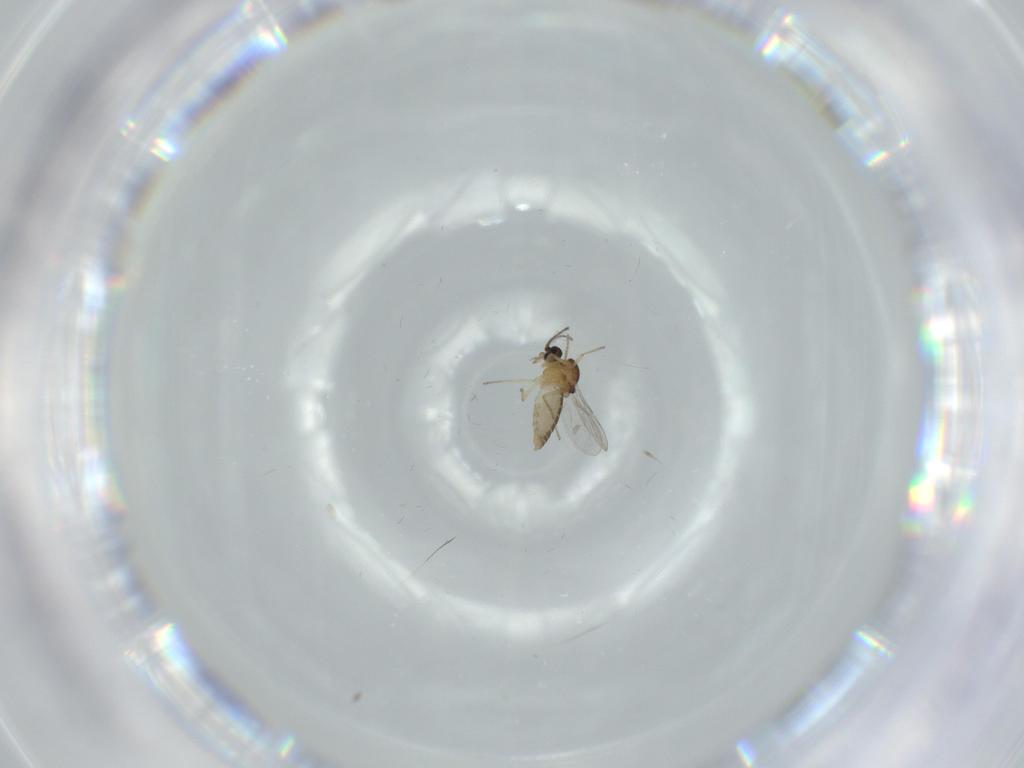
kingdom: Animalia
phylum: Arthropoda
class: Insecta
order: Diptera
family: Ceratopogonidae
